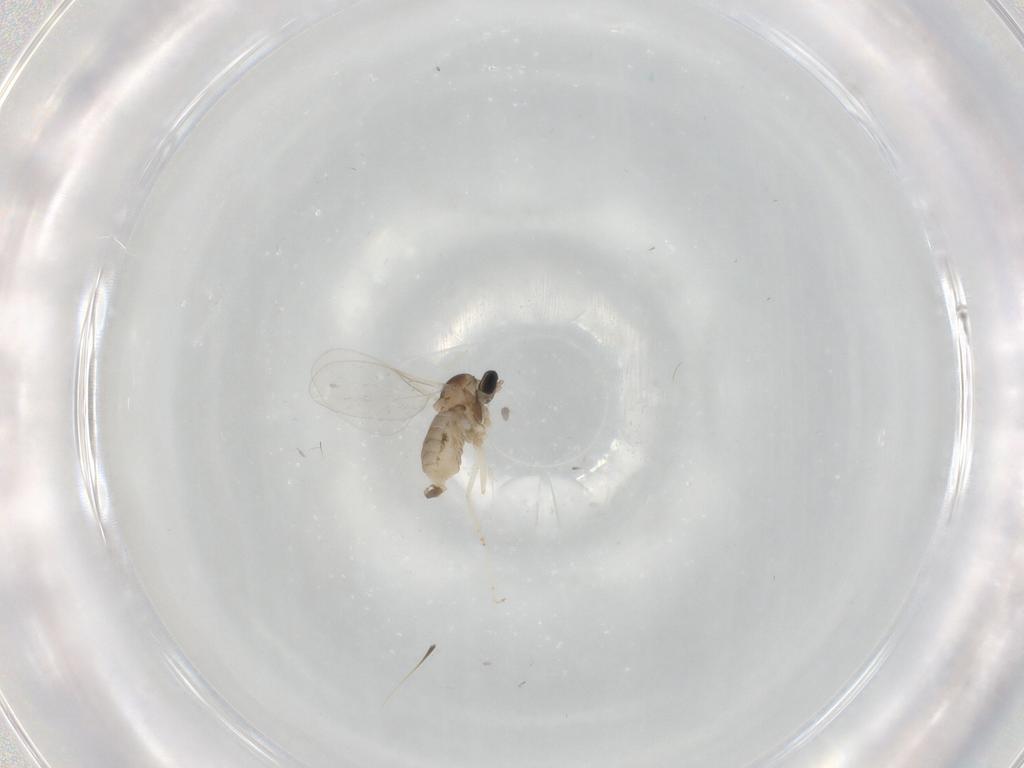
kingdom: Animalia
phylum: Arthropoda
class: Insecta
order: Diptera
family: Cecidomyiidae
